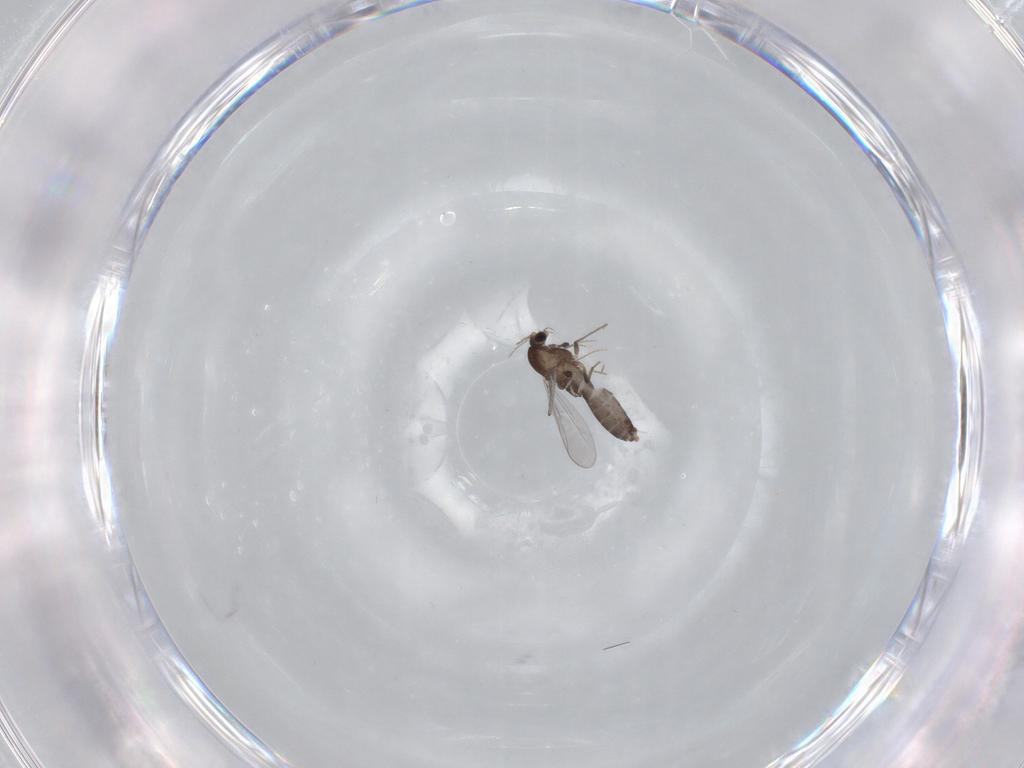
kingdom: Animalia
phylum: Arthropoda
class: Insecta
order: Diptera
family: Chironomidae
